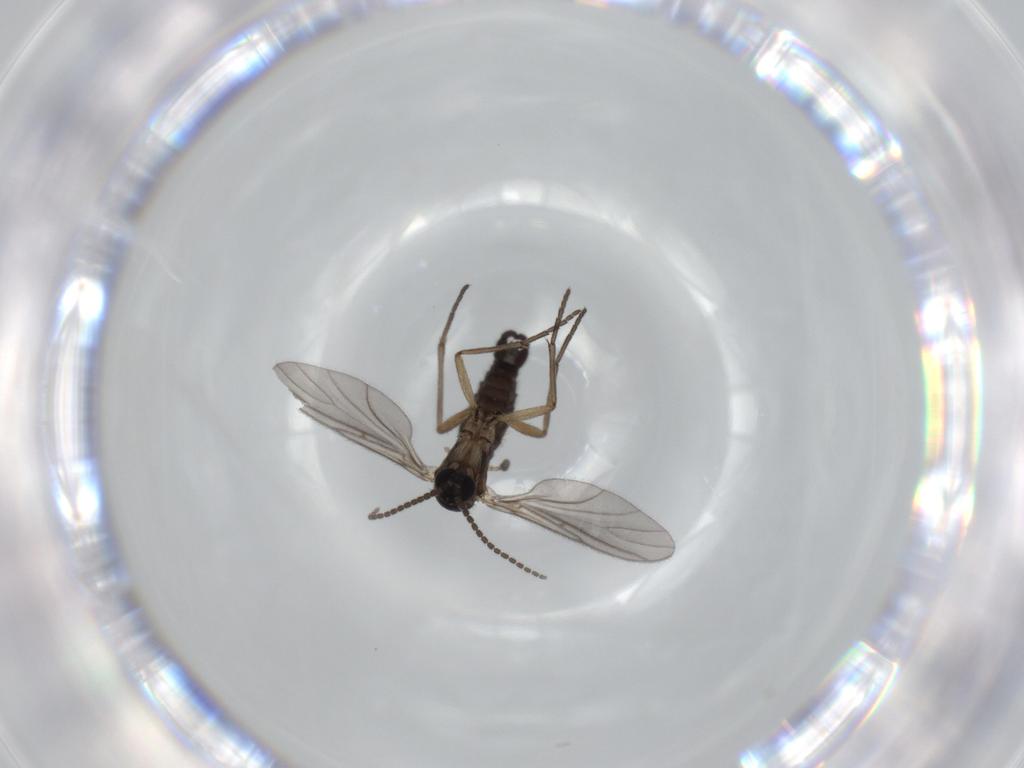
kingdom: Animalia
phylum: Arthropoda
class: Insecta
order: Diptera
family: Sciaridae
